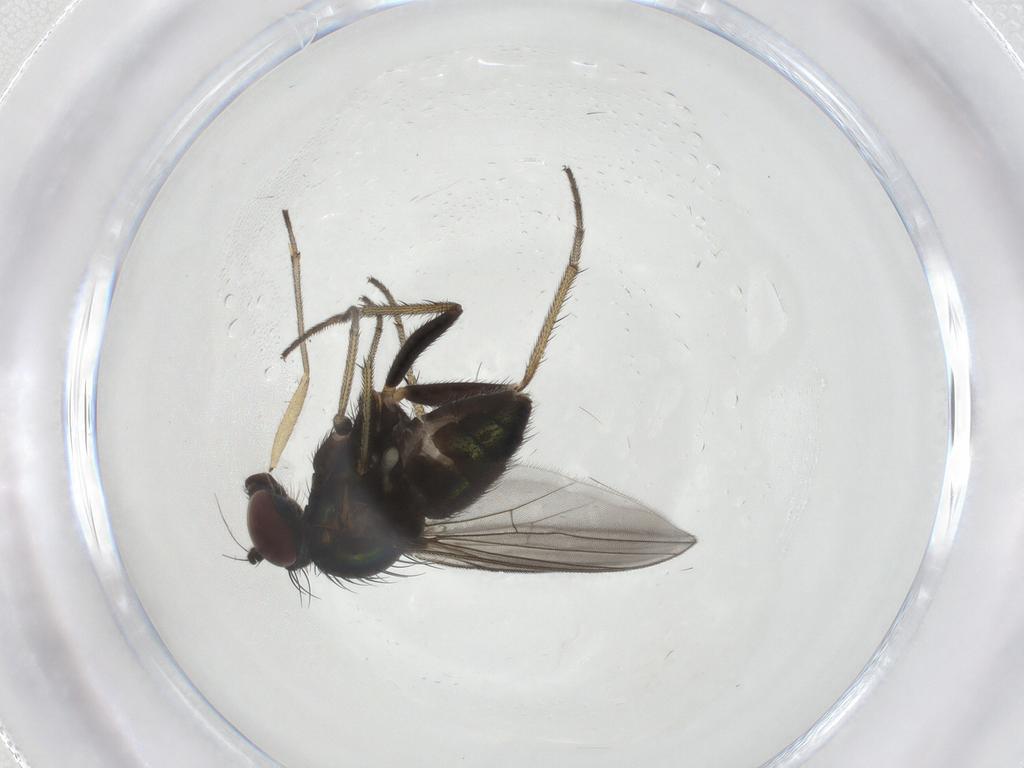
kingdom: Animalia
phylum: Arthropoda
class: Insecta
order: Diptera
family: Limoniidae
